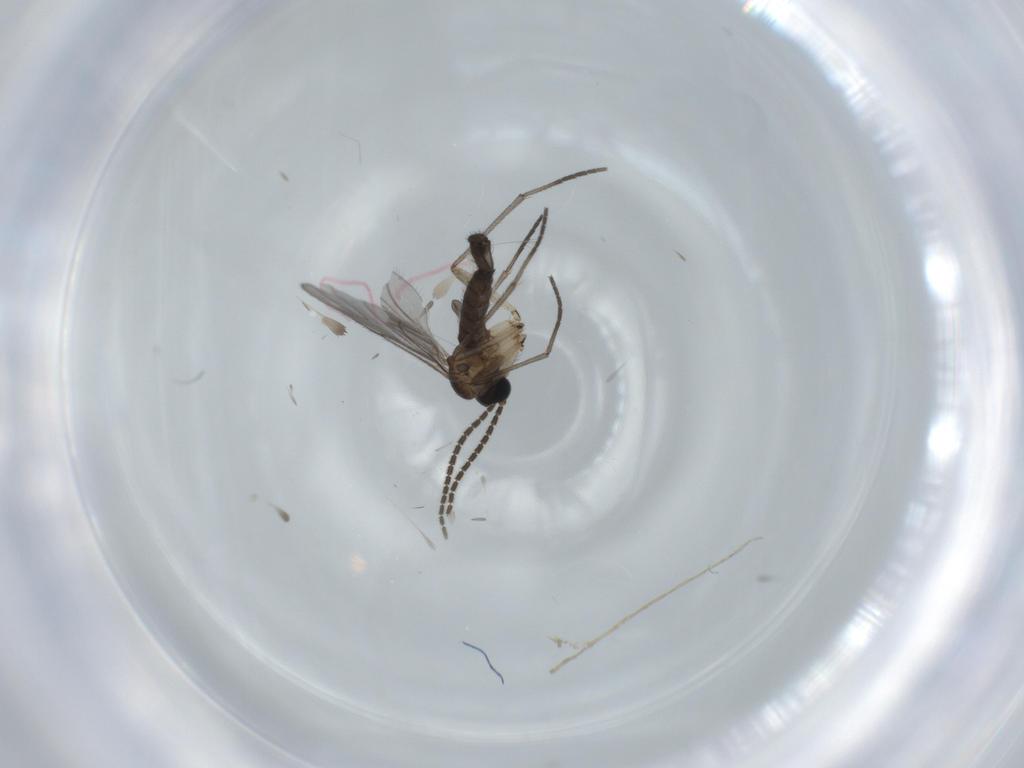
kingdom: Animalia
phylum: Arthropoda
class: Insecta
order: Diptera
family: Sciaridae
